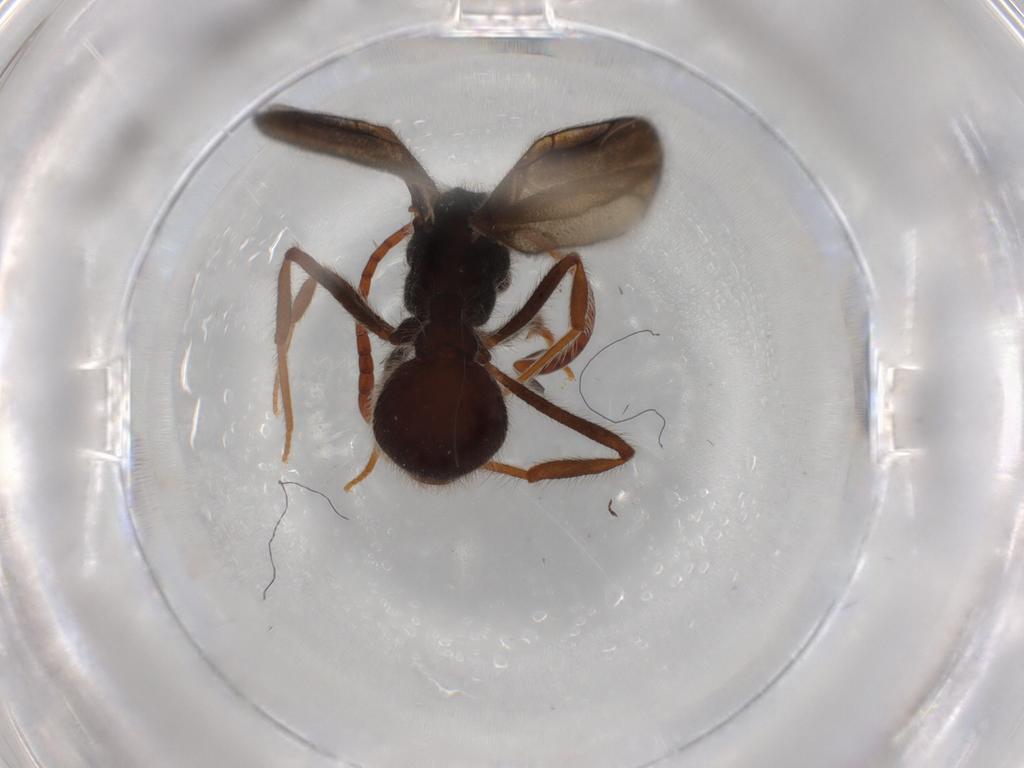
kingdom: Animalia
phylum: Arthropoda
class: Insecta
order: Hymenoptera
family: Formicidae
